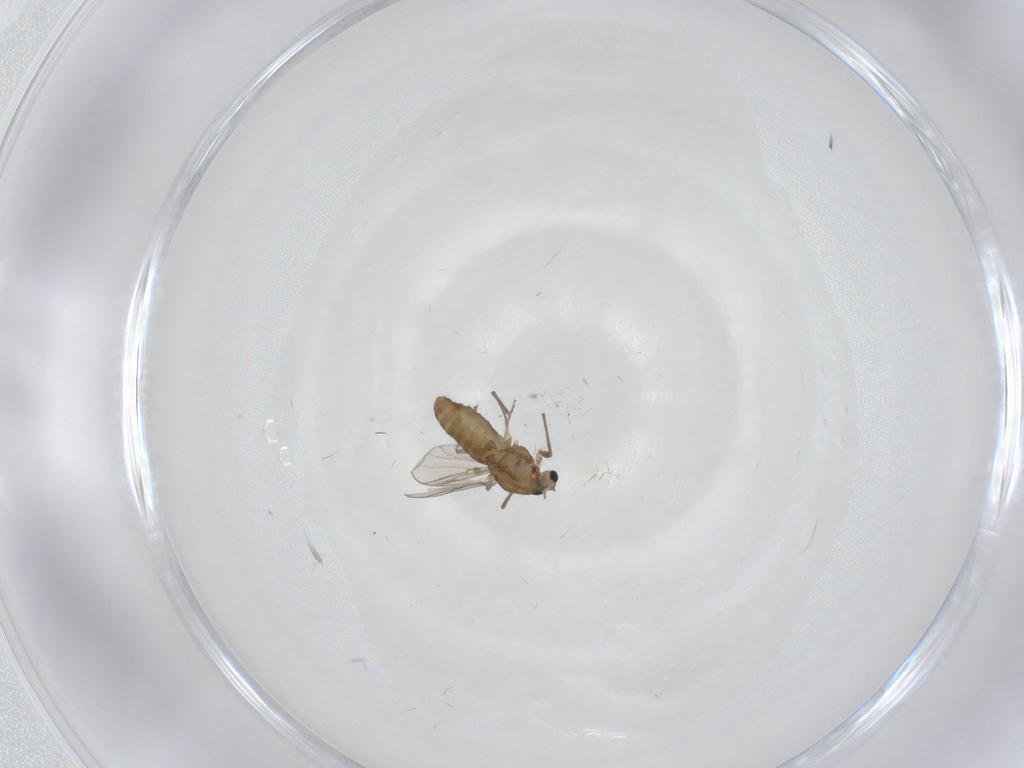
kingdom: Animalia
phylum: Arthropoda
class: Insecta
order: Diptera
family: Chironomidae
